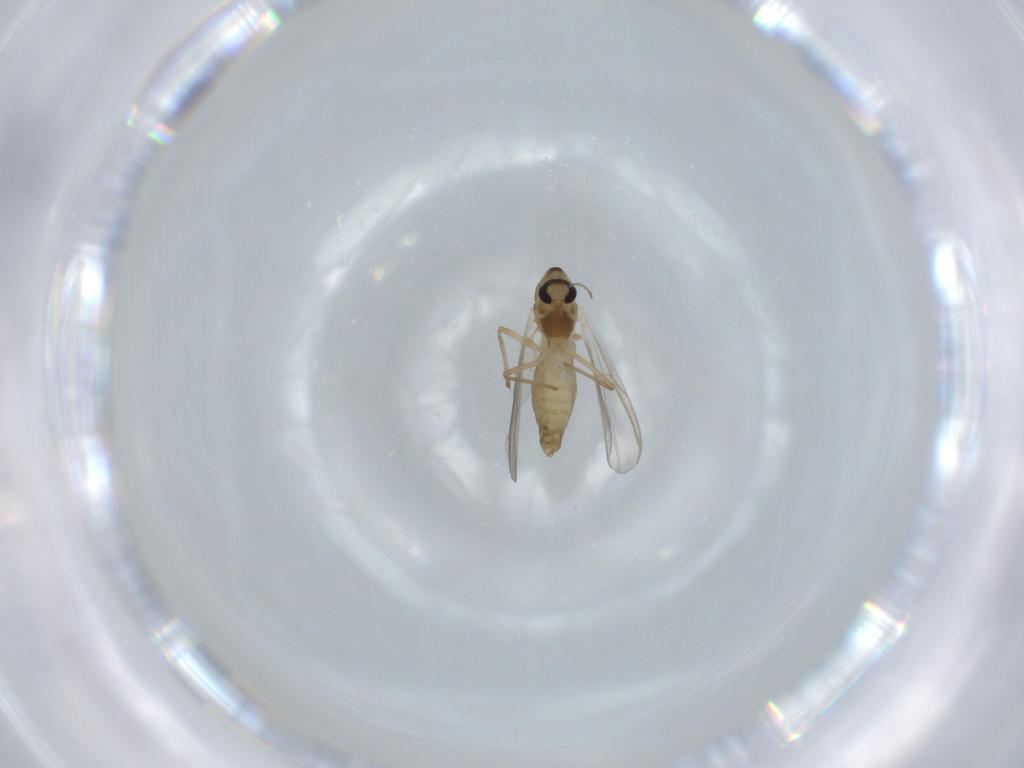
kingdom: Animalia
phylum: Arthropoda
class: Insecta
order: Diptera
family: Chironomidae
